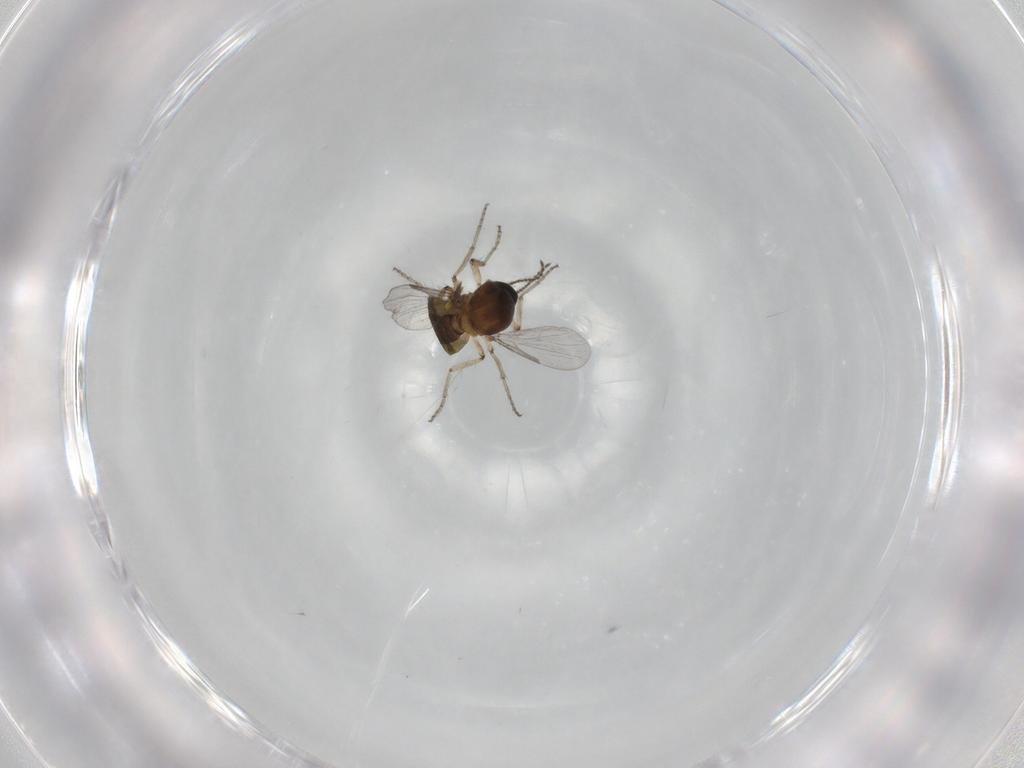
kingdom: Animalia
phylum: Arthropoda
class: Insecta
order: Diptera
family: Ceratopogonidae
